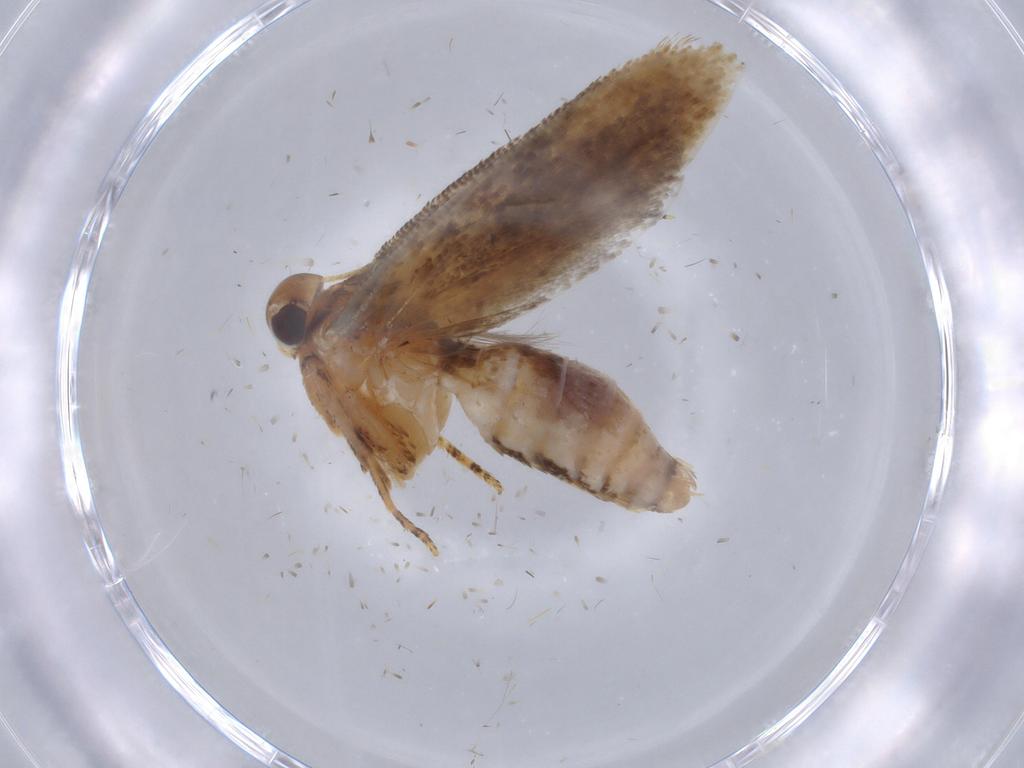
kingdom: Animalia
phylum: Arthropoda
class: Insecta
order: Lepidoptera
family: Gelechiidae
